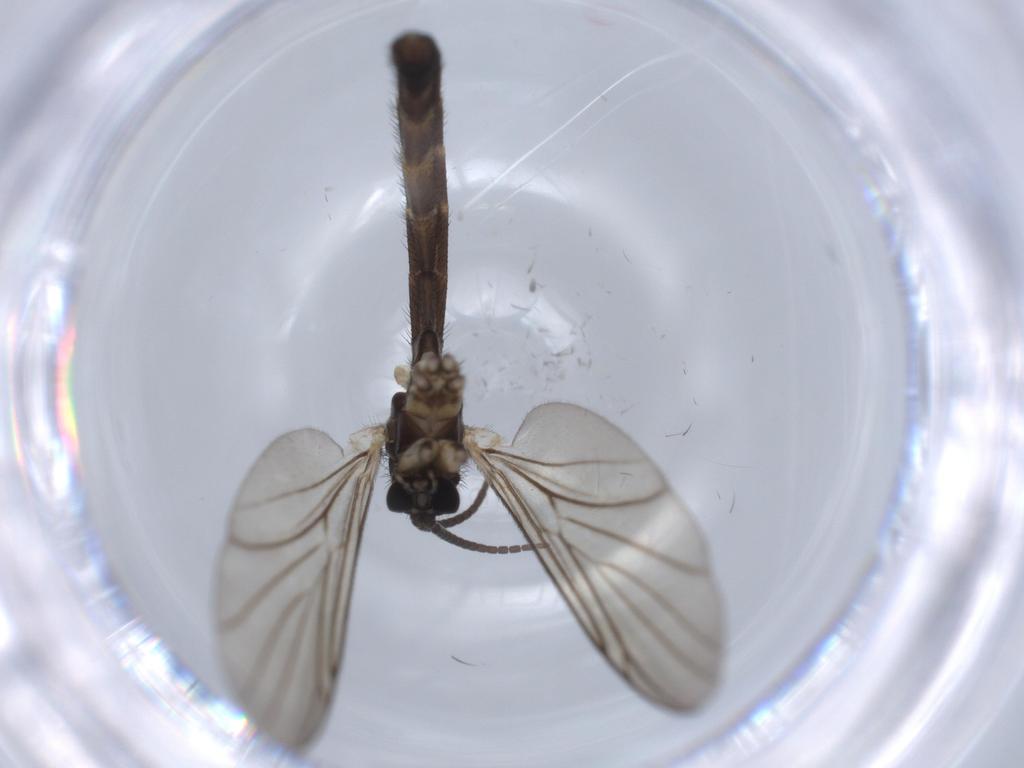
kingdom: Animalia
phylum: Arthropoda
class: Insecta
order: Diptera
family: Phoridae
